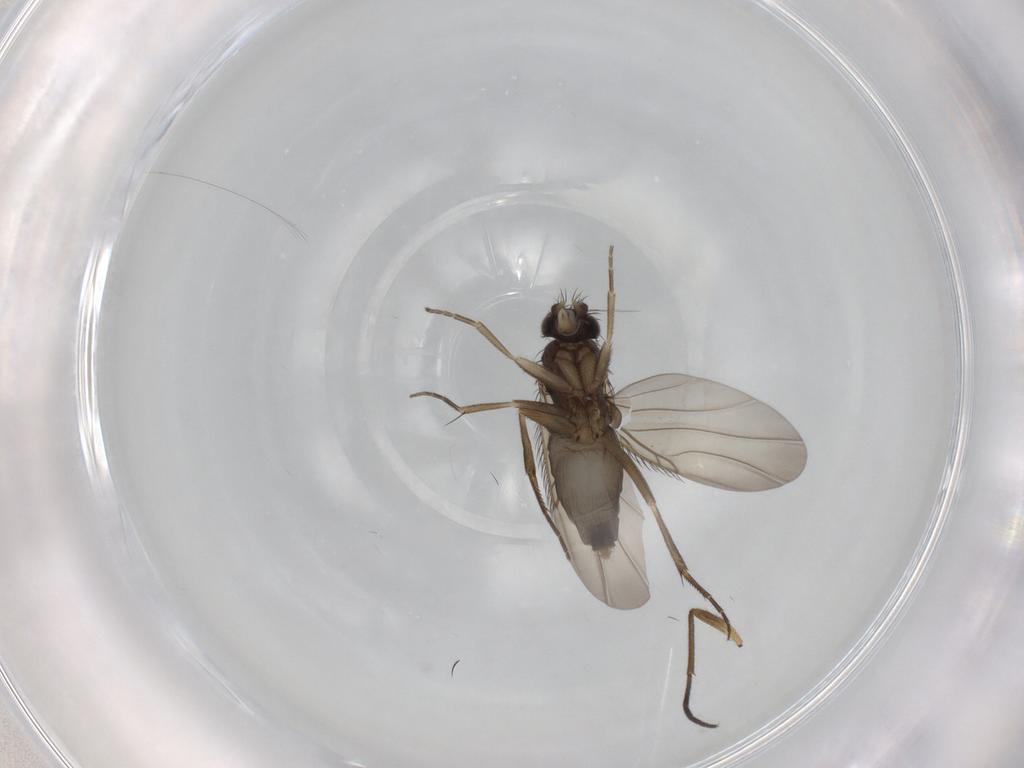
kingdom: Animalia
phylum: Arthropoda
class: Insecta
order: Diptera
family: Phoridae
